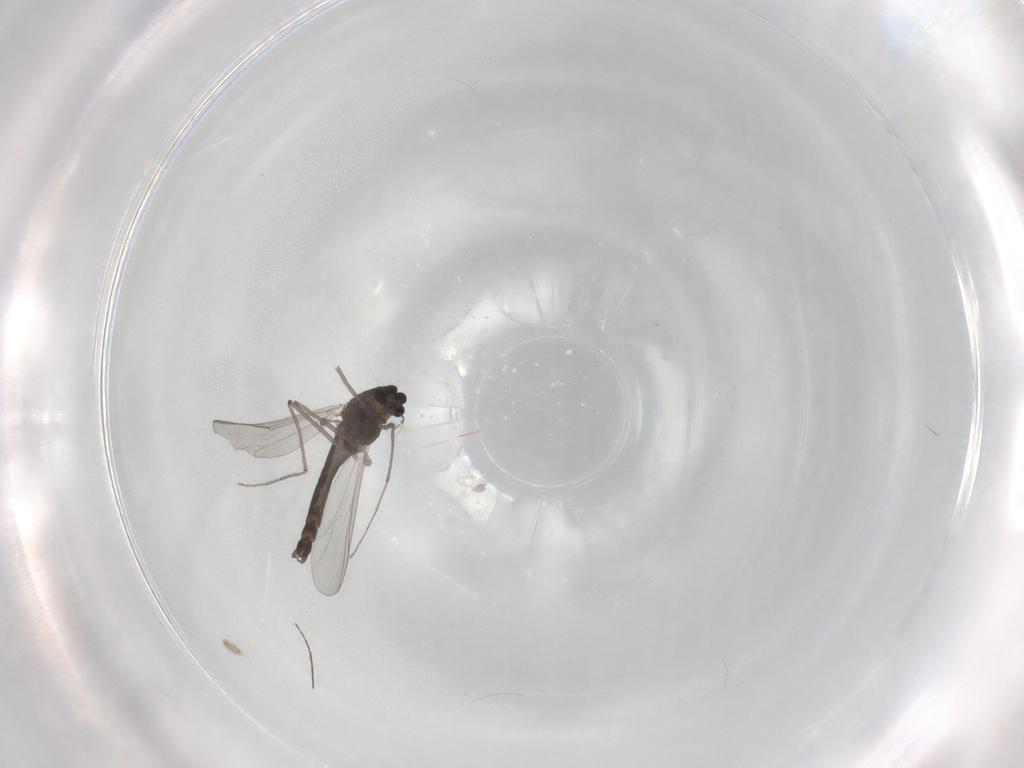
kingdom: Animalia
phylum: Arthropoda
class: Insecta
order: Diptera
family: Chironomidae
